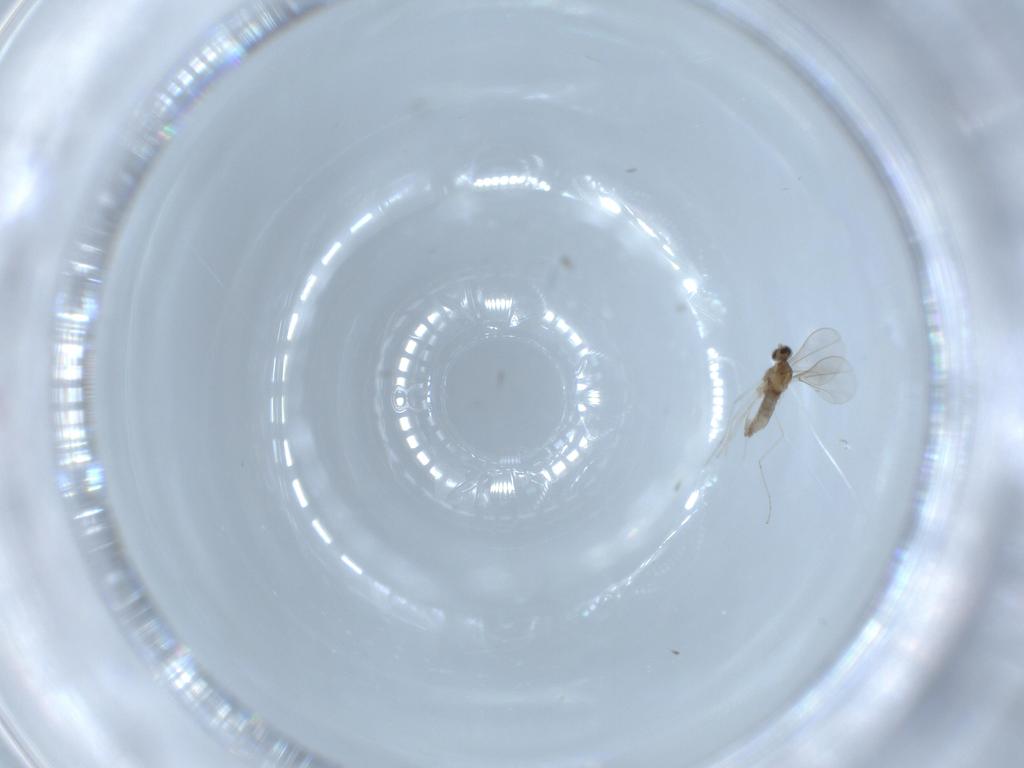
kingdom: Animalia
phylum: Arthropoda
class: Insecta
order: Diptera
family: Cecidomyiidae
